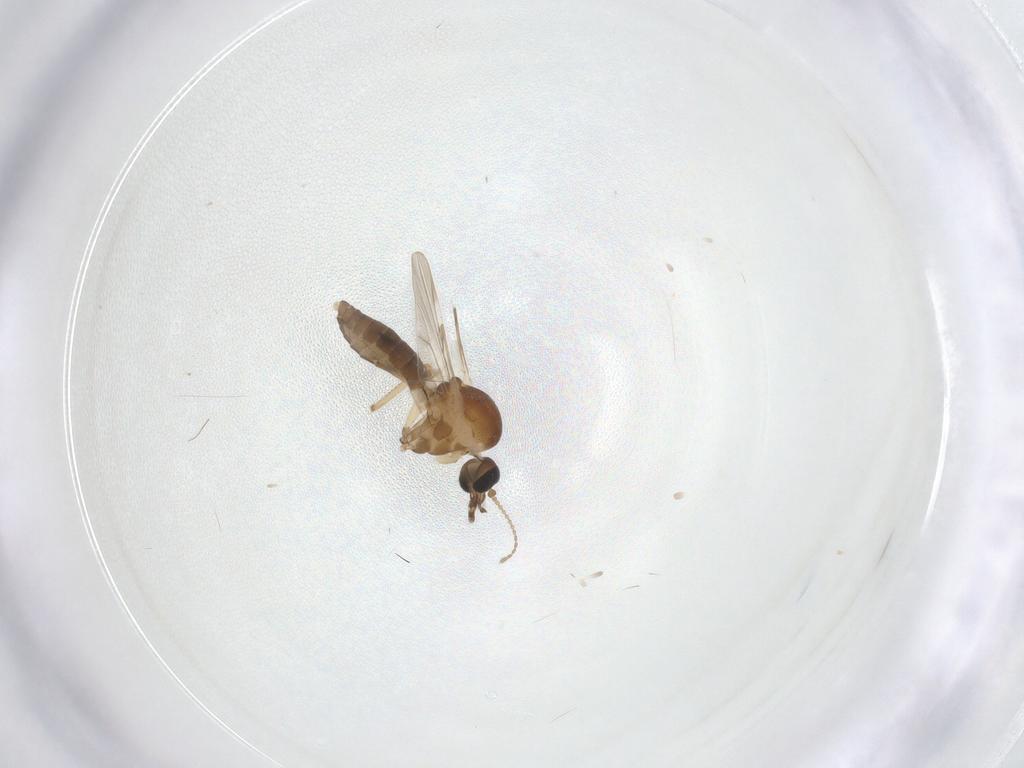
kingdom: Animalia
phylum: Arthropoda
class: Insecta
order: Diptera
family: Ceratopogonidae
